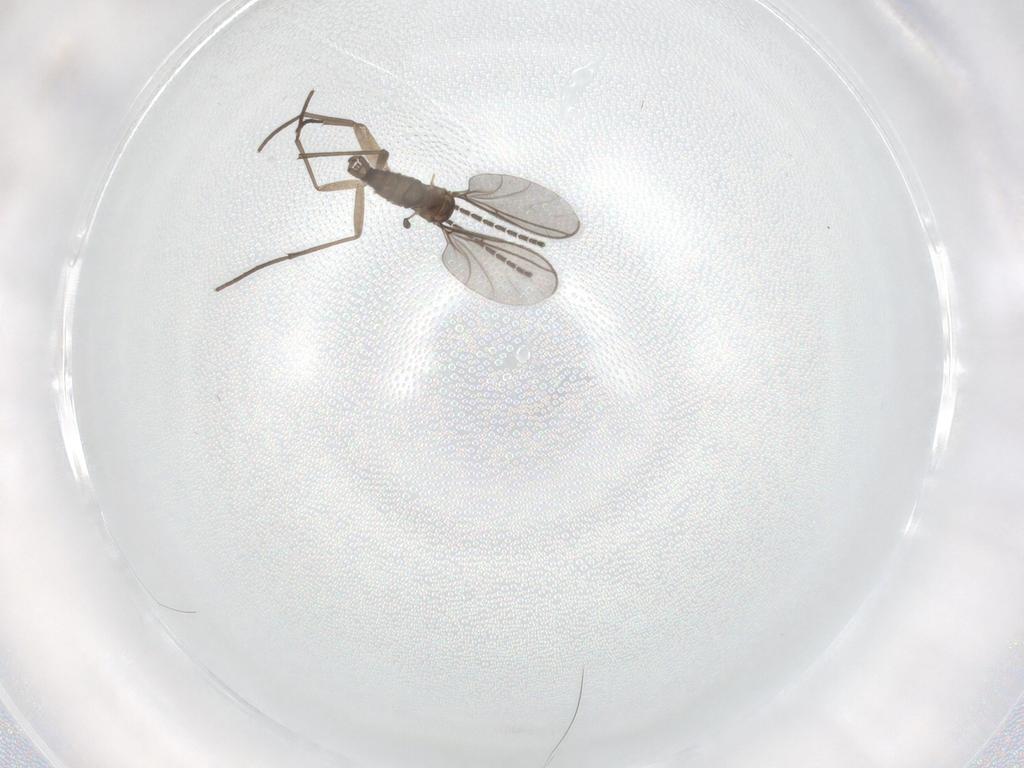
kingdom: Animalia
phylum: Arthropoda
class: Insecta
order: Diptera
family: Sciaridae
